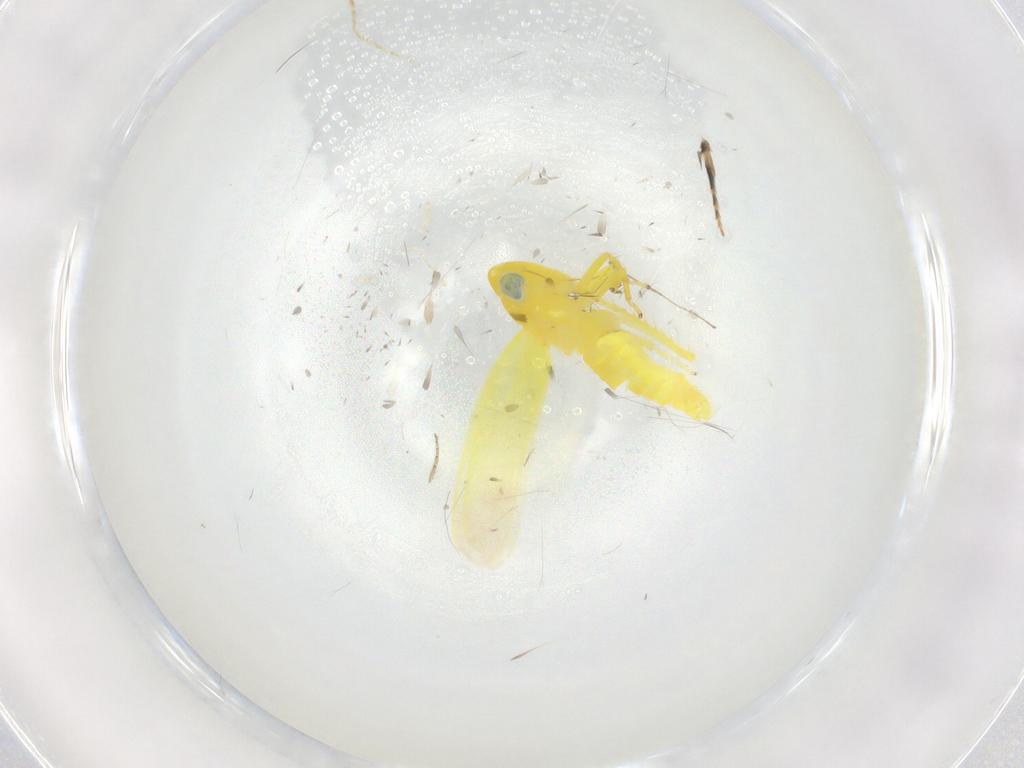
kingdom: Animalia
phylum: Arthropoda
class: Insecta
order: Hemiptera
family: Cicadellidae
